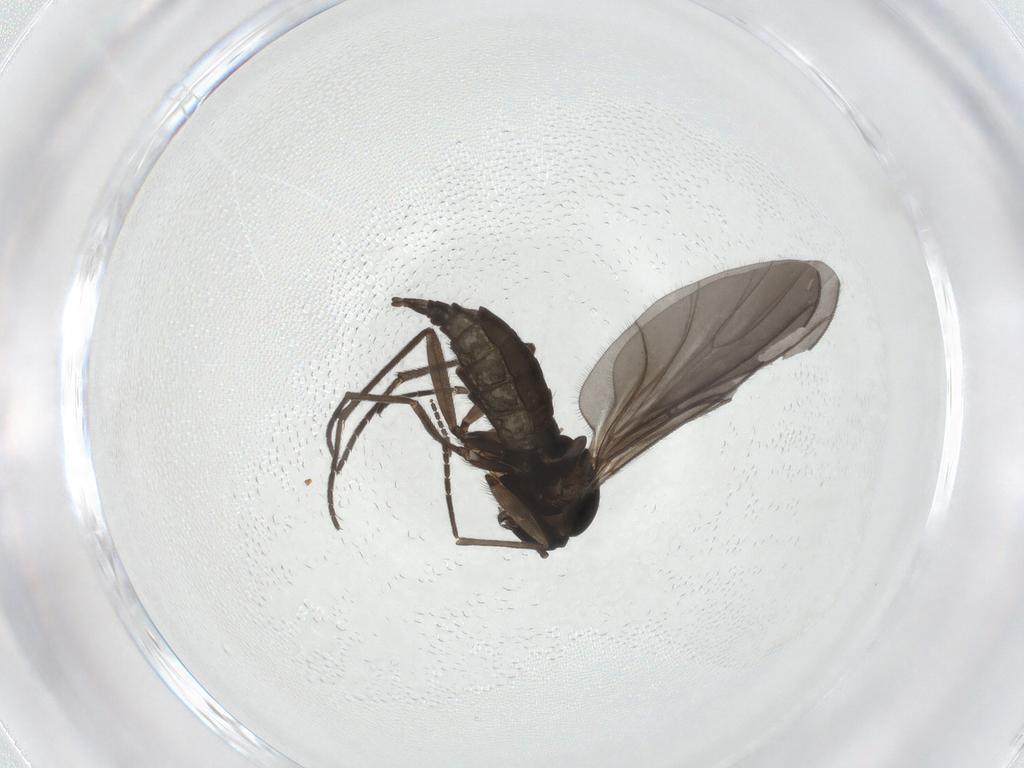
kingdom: Animalia
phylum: Arthropoda
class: Insecta
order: Diptera
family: Sciaridae
